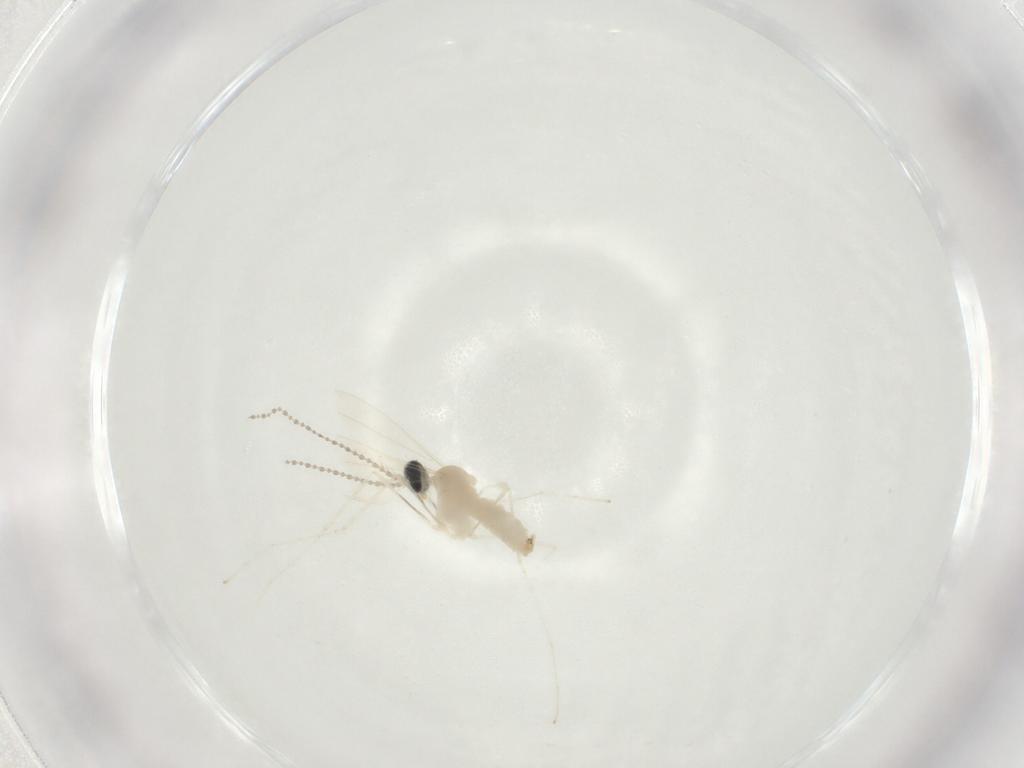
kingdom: Animalia
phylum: Arthropoda
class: Insecta
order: Diptera
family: Cecidomyiidae
